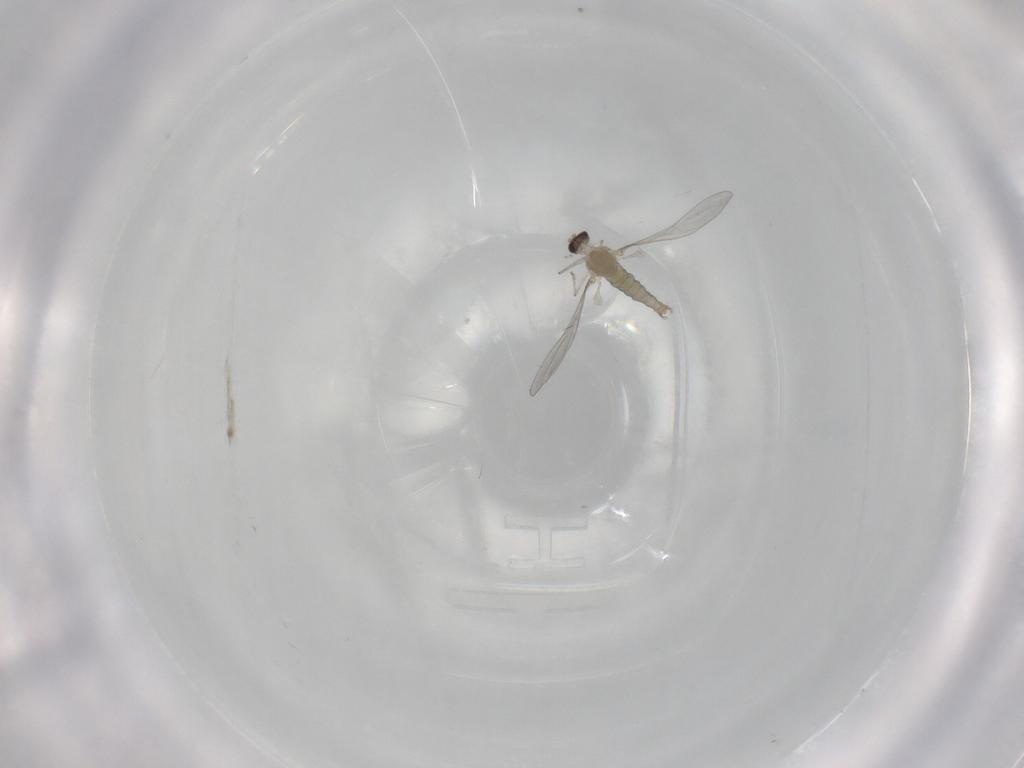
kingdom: Animalia
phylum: Arthropoda
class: Insecta
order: Diptera
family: Cecidomyiidae
